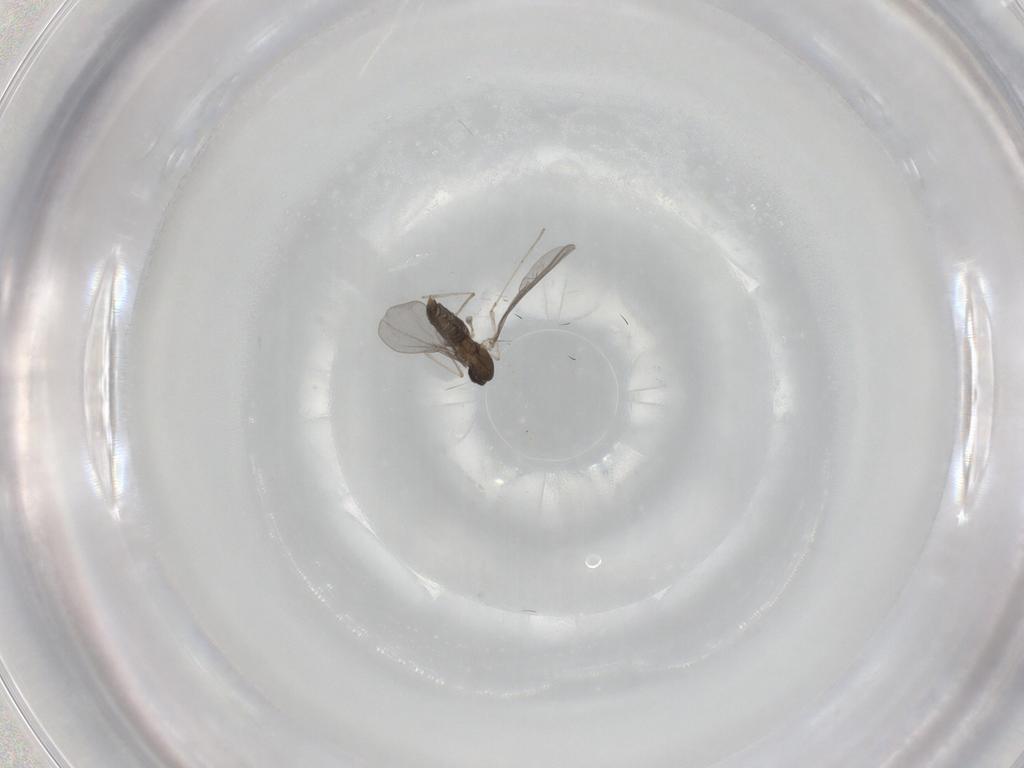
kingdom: Animalia
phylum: Arthropoda
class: Insecta
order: Diptera
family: Cecidomyiidae
